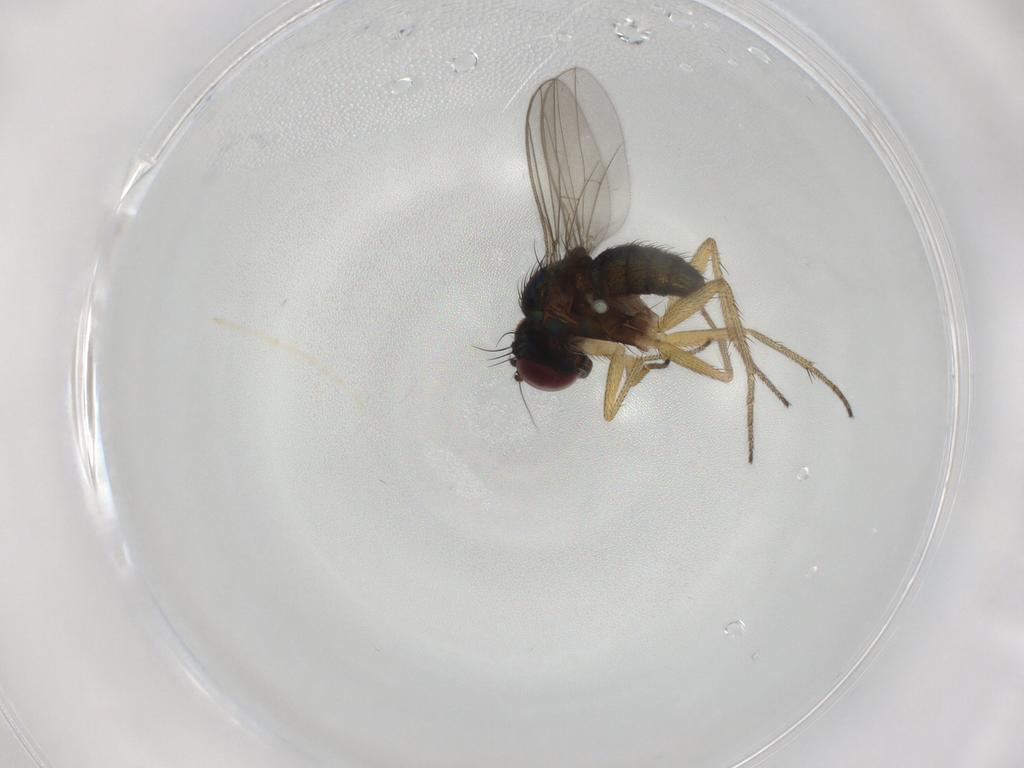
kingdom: Animalia
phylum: Arthropoda
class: Insecta
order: Diptera
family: Dolichopodidae
